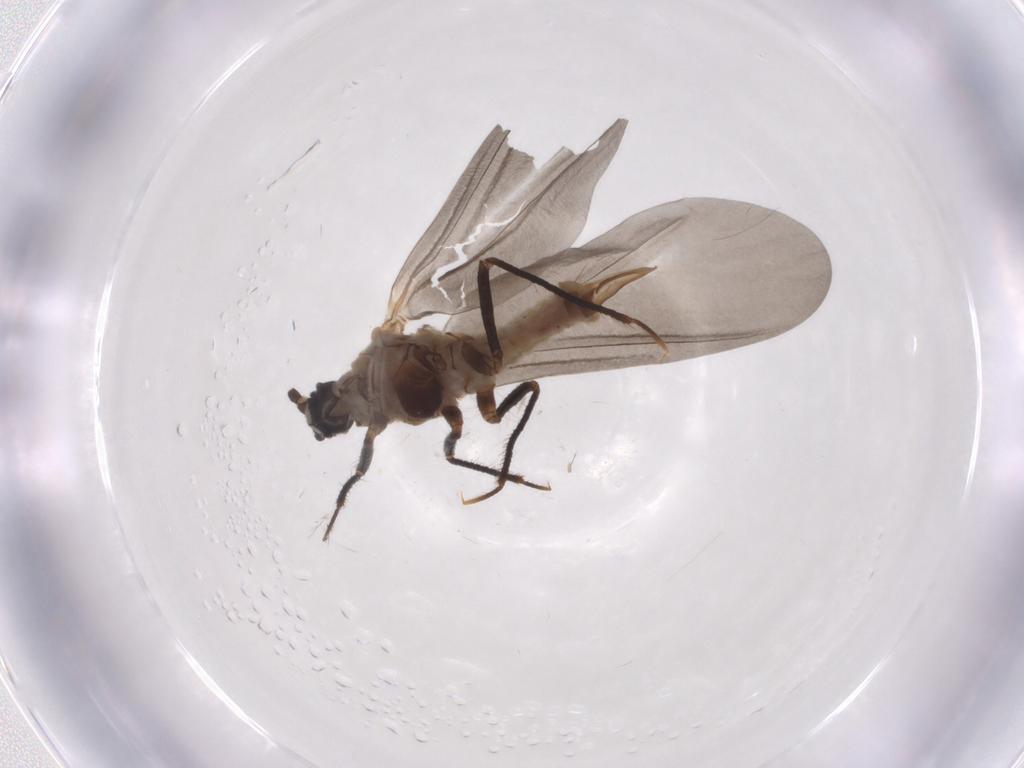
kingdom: Animalia
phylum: Arthropoda
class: Insecta
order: Hemiptera
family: Putoidae
